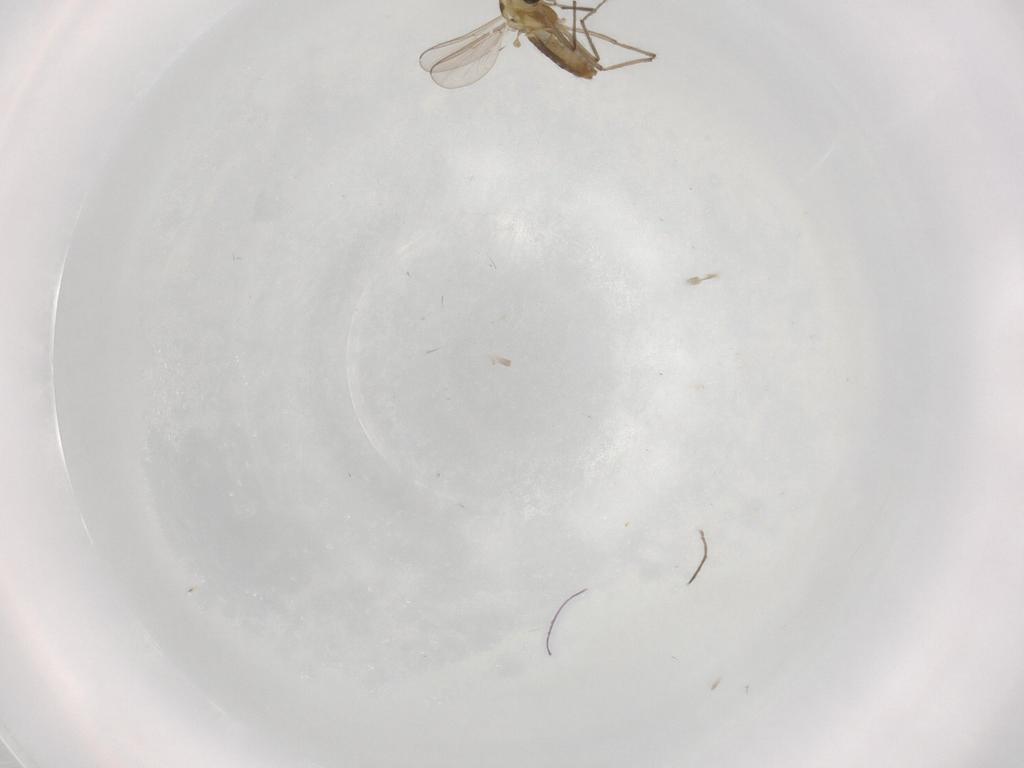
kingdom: Animalia
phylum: Arthropoda
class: Insecta
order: Diptera
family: Chironomidae
